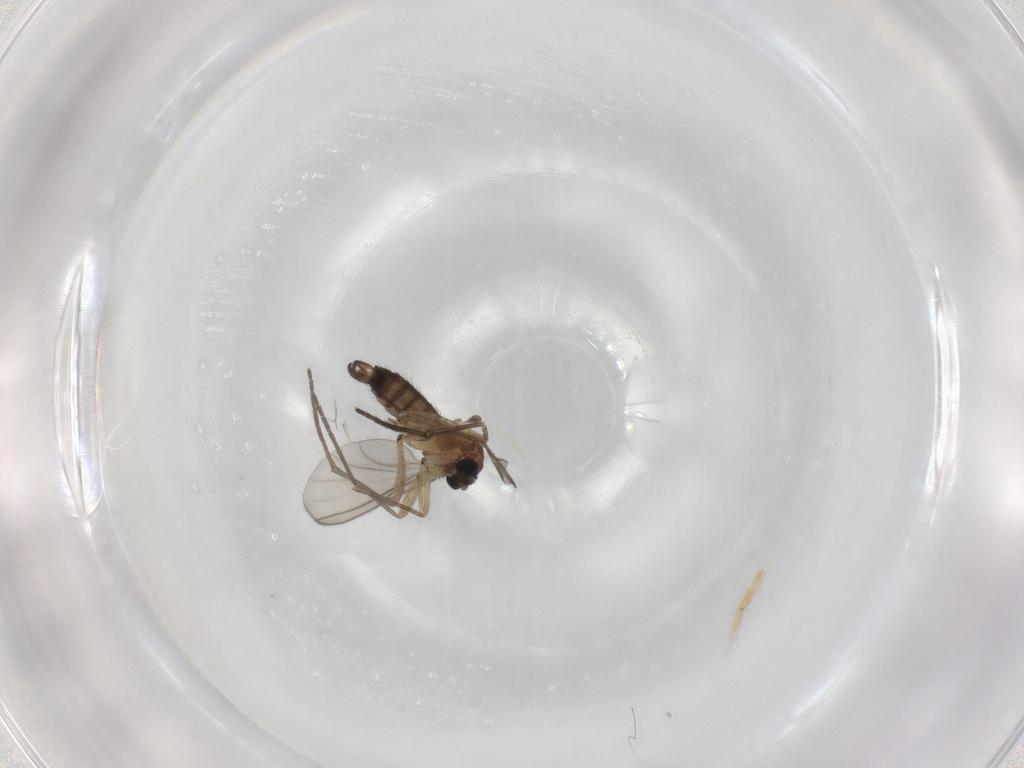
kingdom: Animalia
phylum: Arthropoda
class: Insecta
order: Diptera
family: Sciaridae
